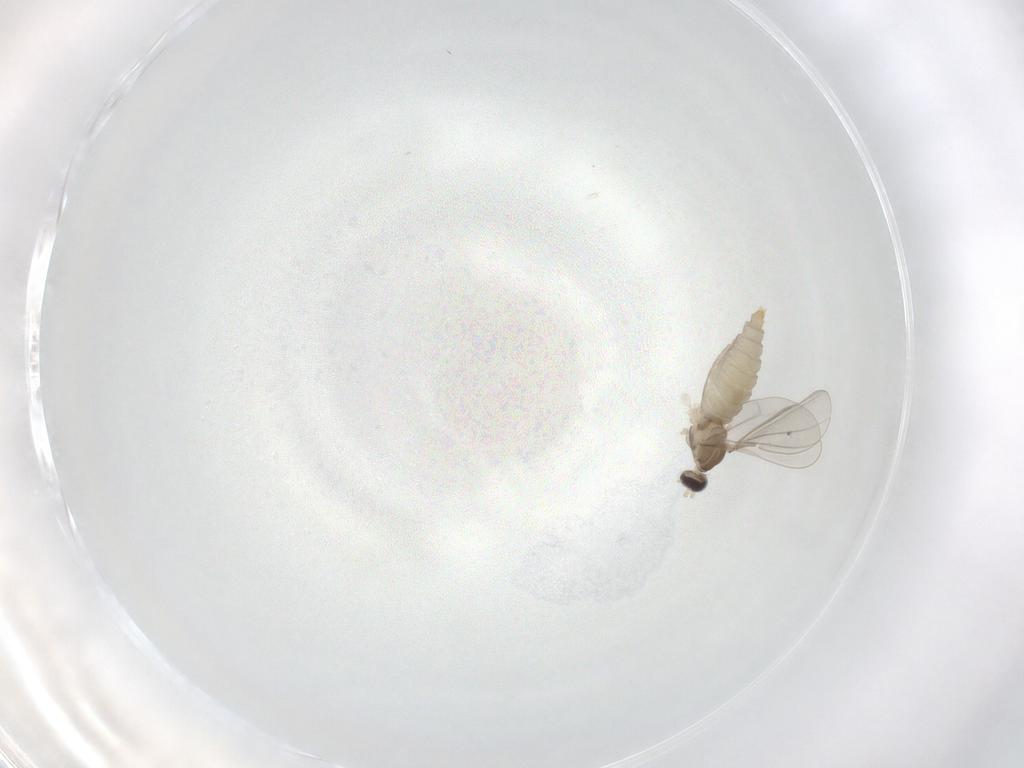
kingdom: Animalia
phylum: Arthropoda
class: Insecta
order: Diptera
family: Cecidomyiidae
